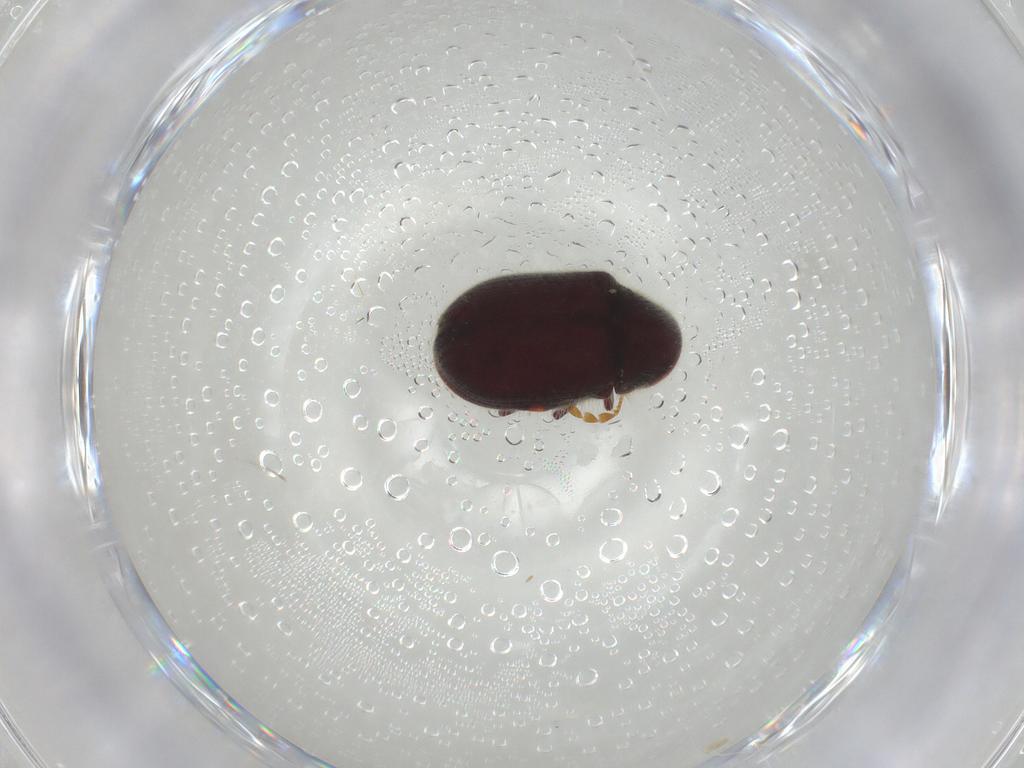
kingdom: Animalia
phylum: Arthropoda
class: Insecta
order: Coleoptera
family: Ptinidae
